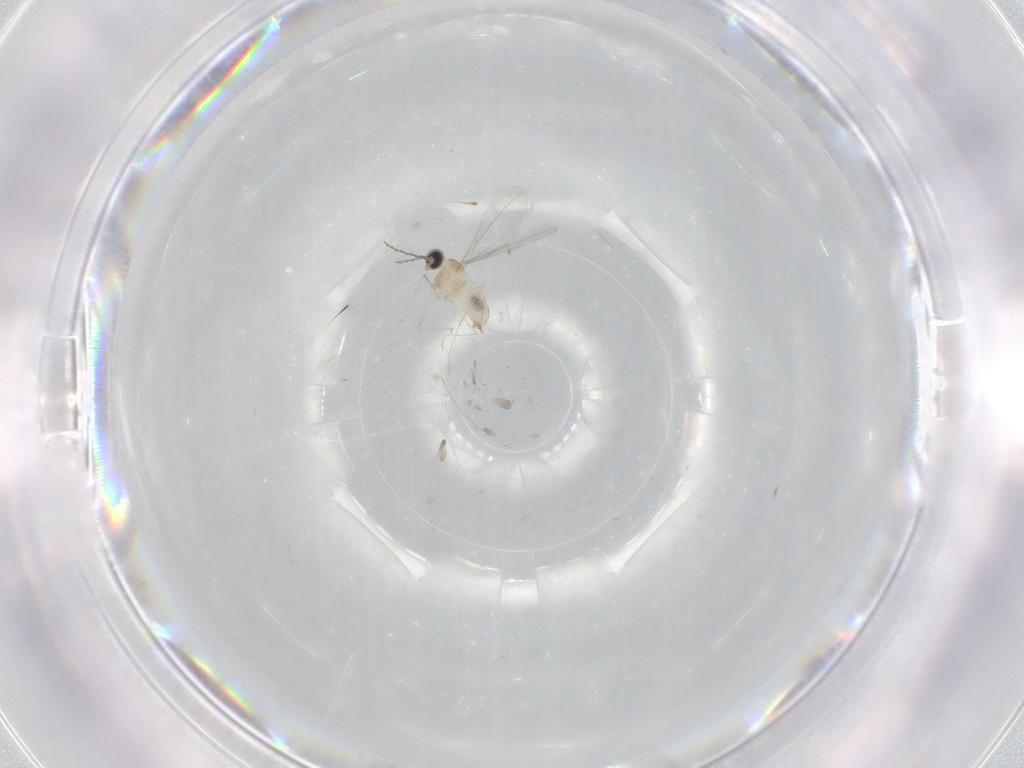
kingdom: Animalia
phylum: Arthropoda
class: Insecta
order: Diptera
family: Cecidomyiidae
